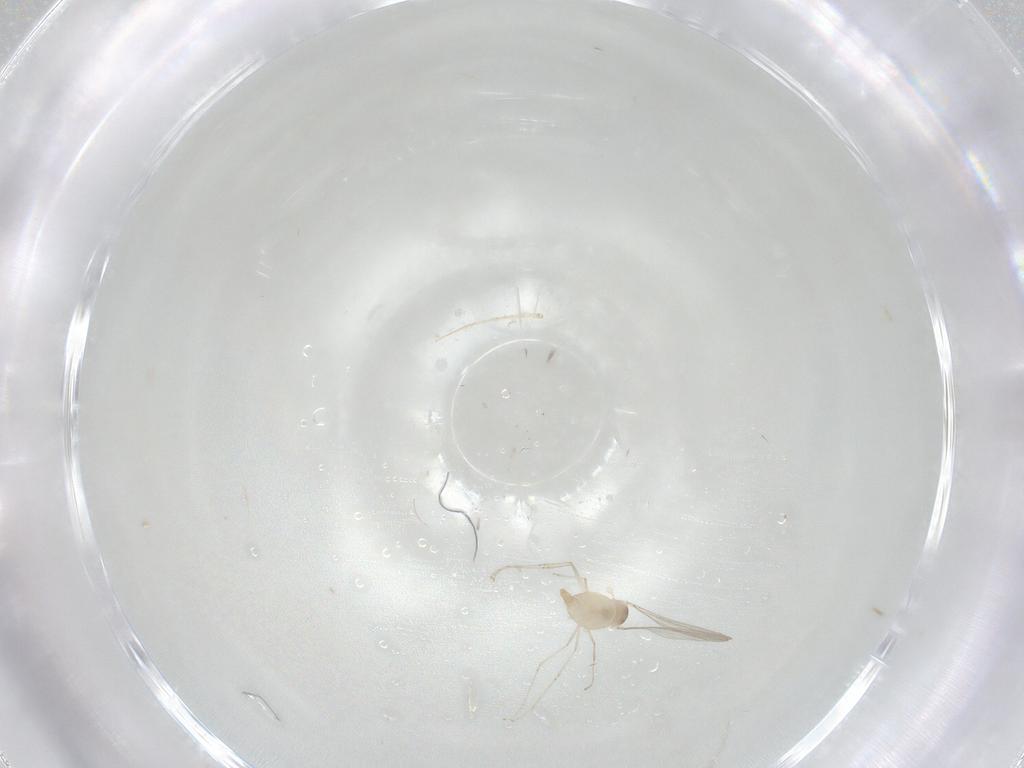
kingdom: Animalia
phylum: Arthropoda
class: Insecta
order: Diptera
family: Cecidomyiidae
